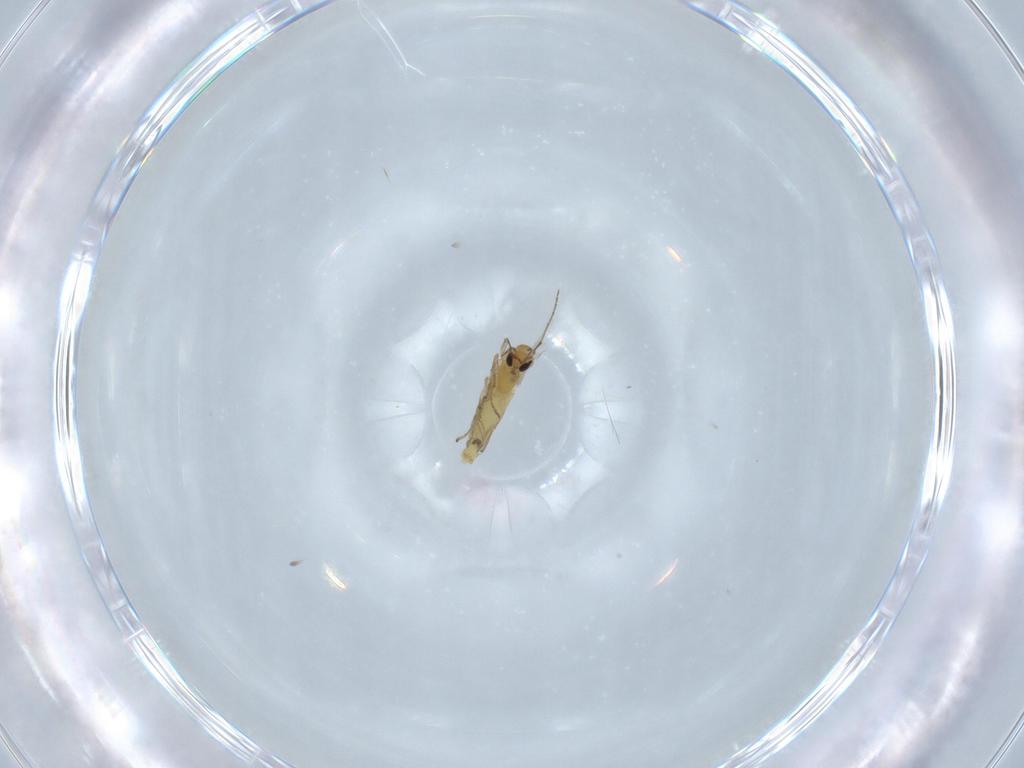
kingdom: Animalia
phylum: Arthropoda
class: Insecta
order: Diptera
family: Chironomidae
